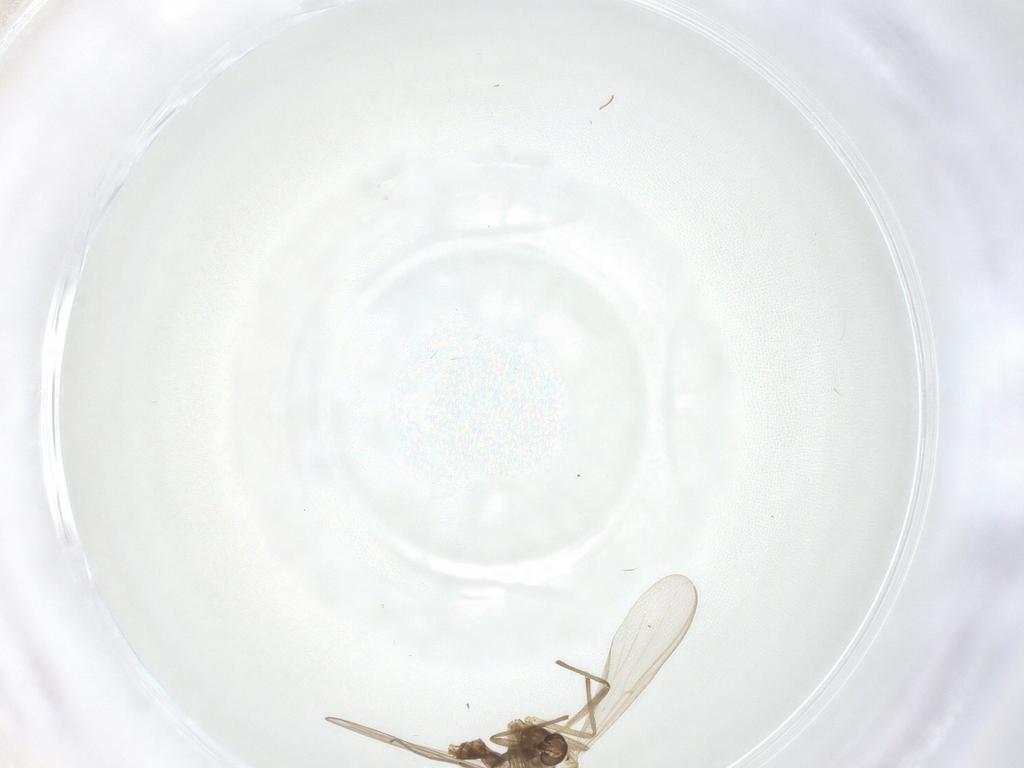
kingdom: Animalia
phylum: Arthropoda
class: Insecta
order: Diptera
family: Chironomidae
